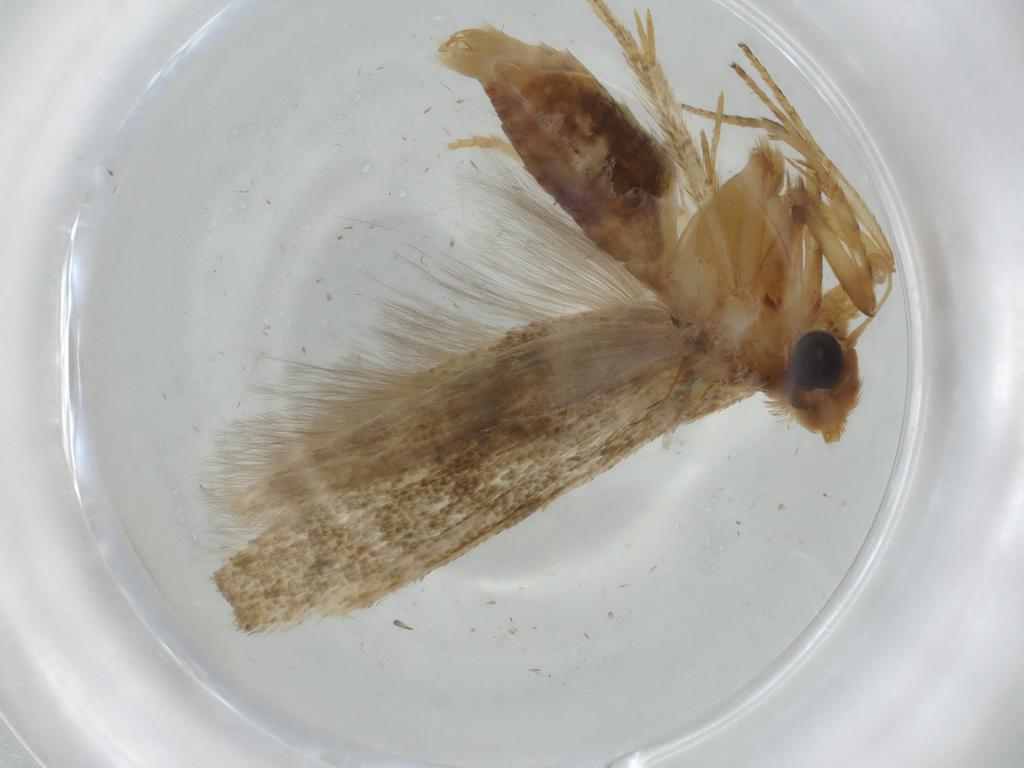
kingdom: Animalia
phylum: Arthropoda
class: Insecta
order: Lepidoptera
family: Coleophoridae
